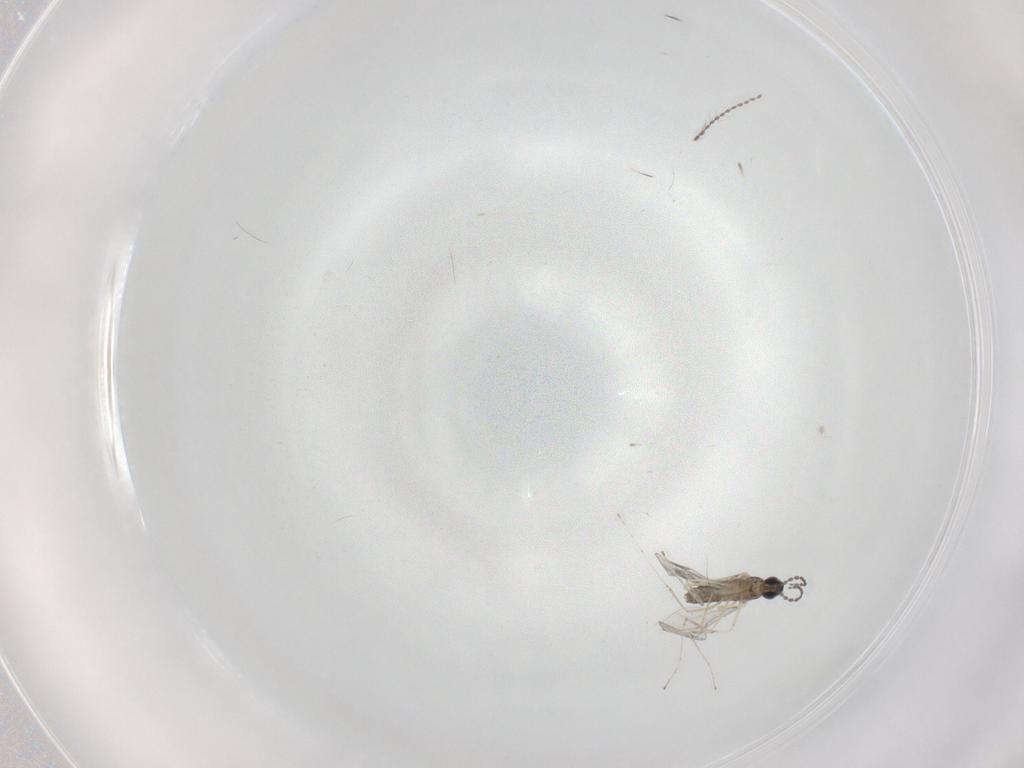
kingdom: Animalia
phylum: Arthropoda
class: Insecta
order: Diptera
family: Cecidomyiidae
